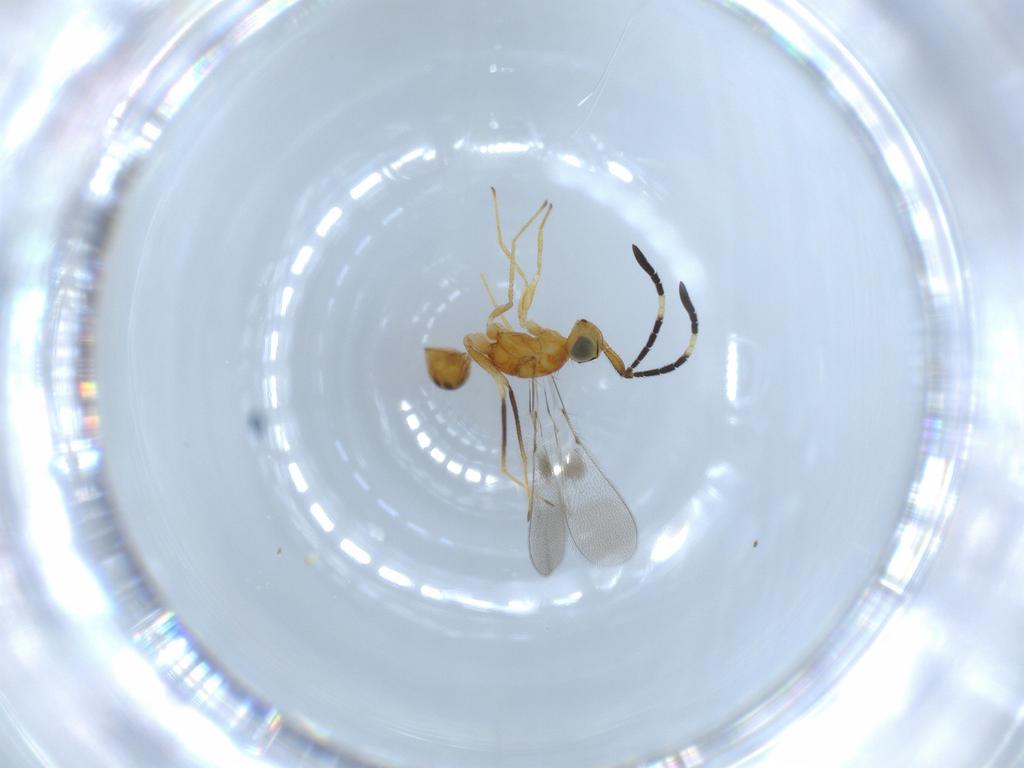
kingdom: Animalia
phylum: Arthropoda
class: Insecta
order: Hymenoptera
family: Mymaridae
